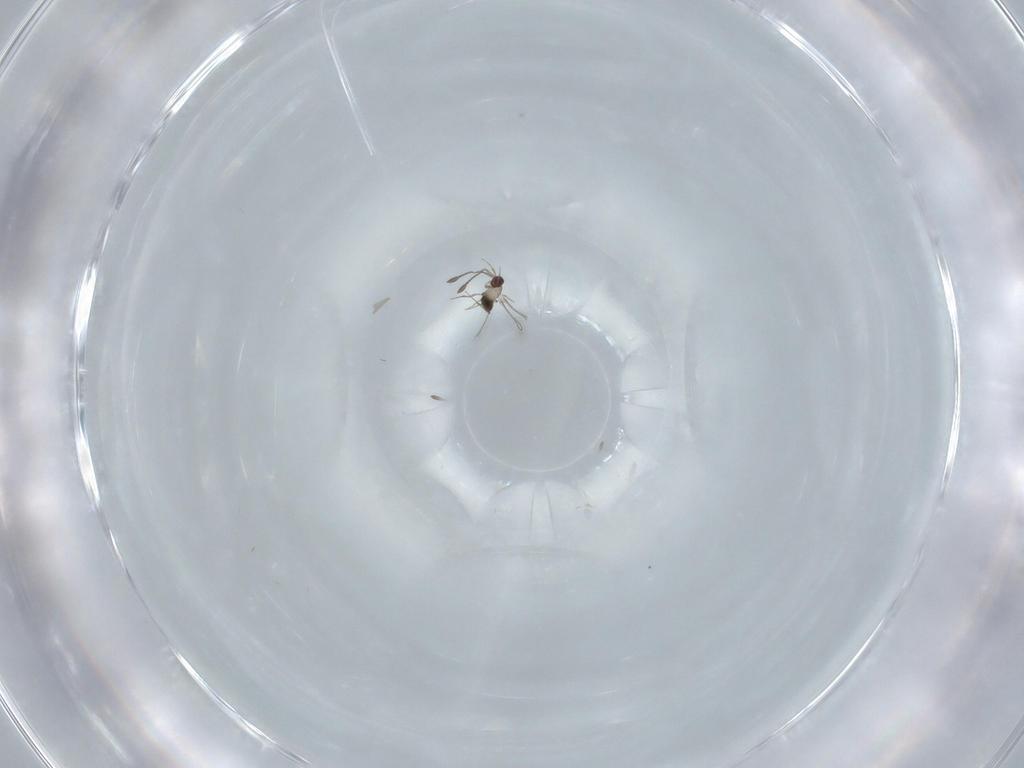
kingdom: Animalia
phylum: Arthropoda
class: Insecta
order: Hymenoptera
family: Mymaridae
